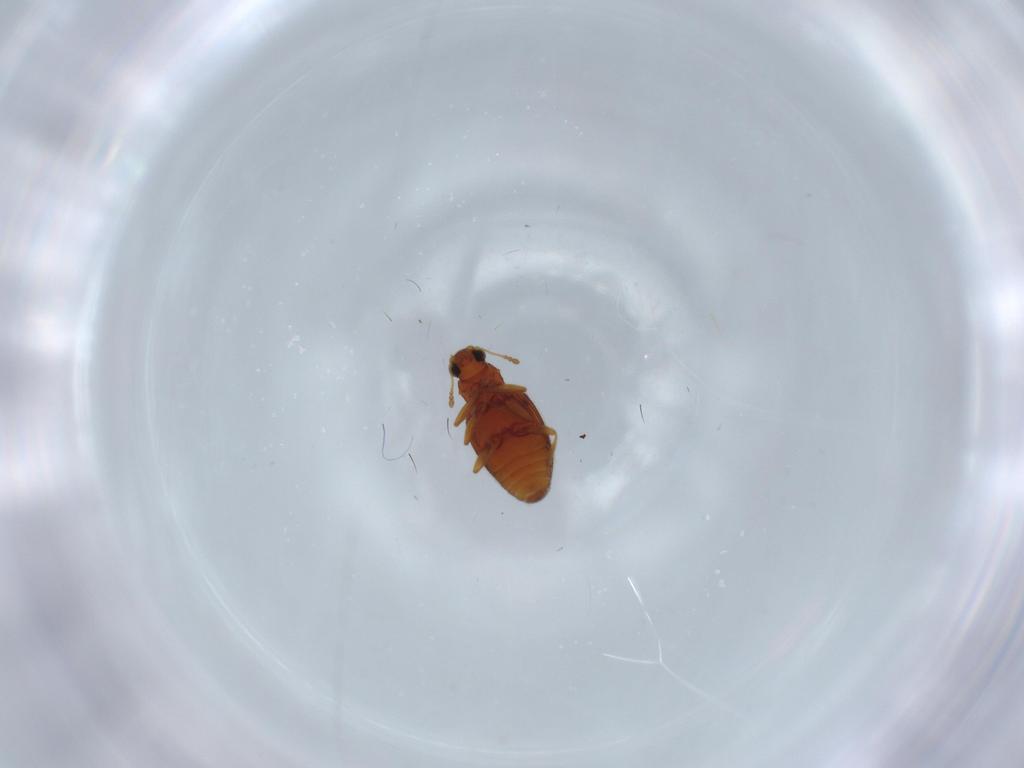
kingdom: Animalia
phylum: Arthropoda
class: Insecta
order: Coleoptera
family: Latridiidae
